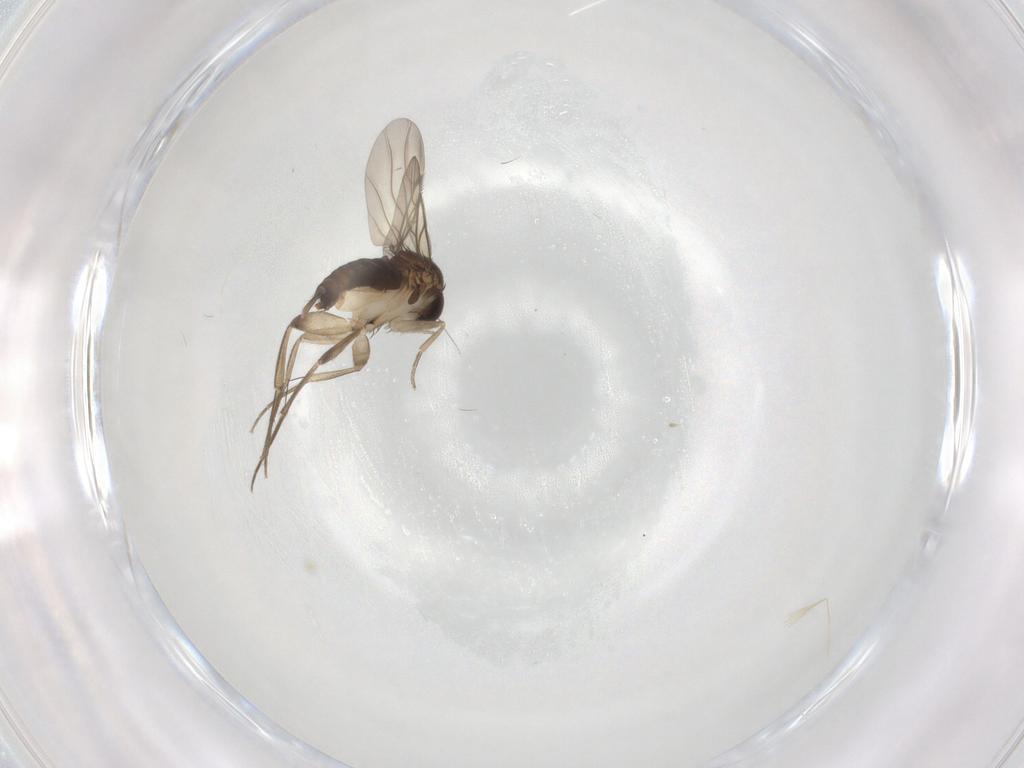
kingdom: Animalia
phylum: Arthropoda
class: Insecta
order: Diptera
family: Phoridae
